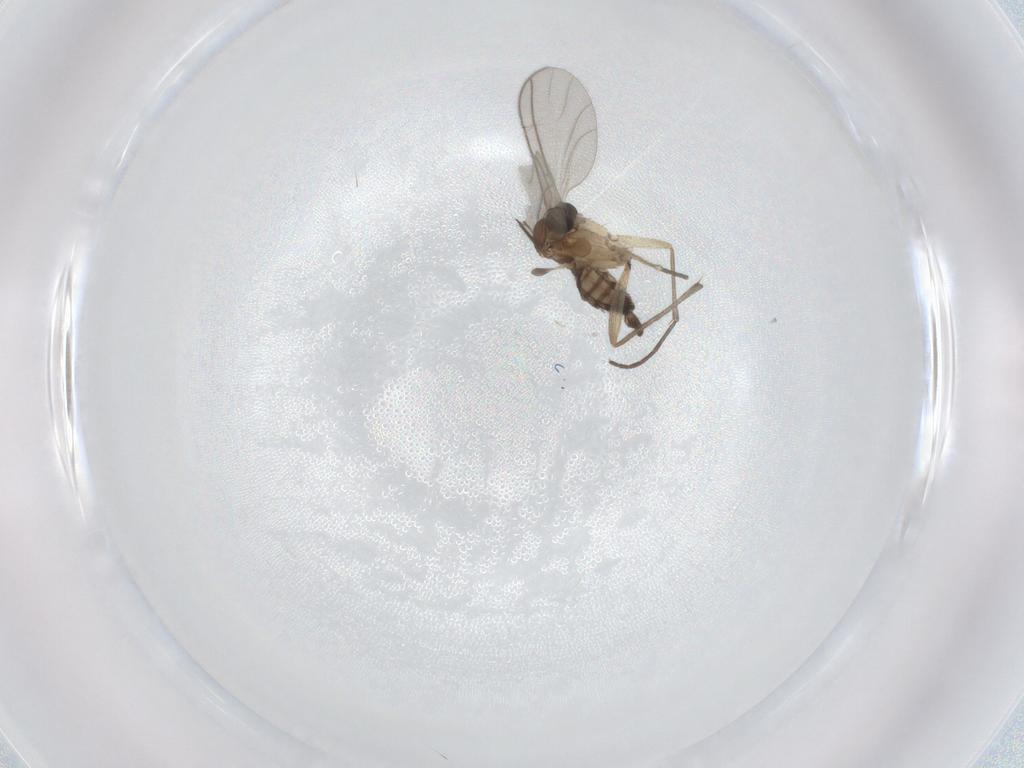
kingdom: Animalia
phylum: Arthropoda
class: Insecta
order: Diptera
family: Sciaridae
